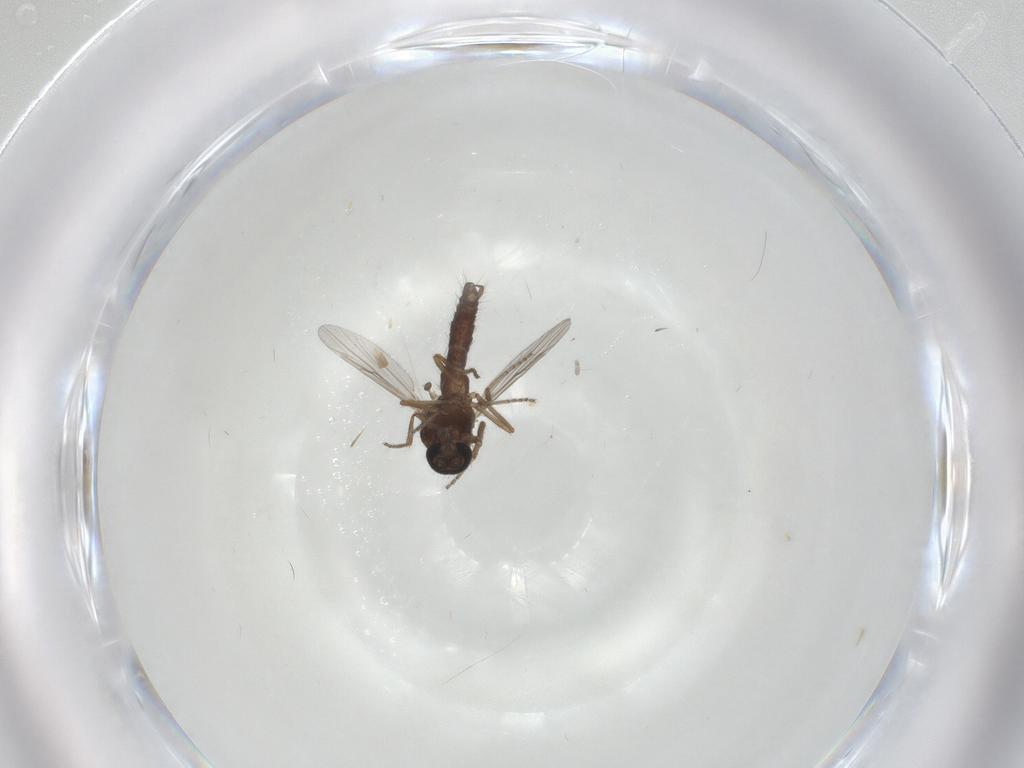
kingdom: Animalia
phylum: Arthropoda
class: Insecta
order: Diptera
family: Ceratopogonidae
